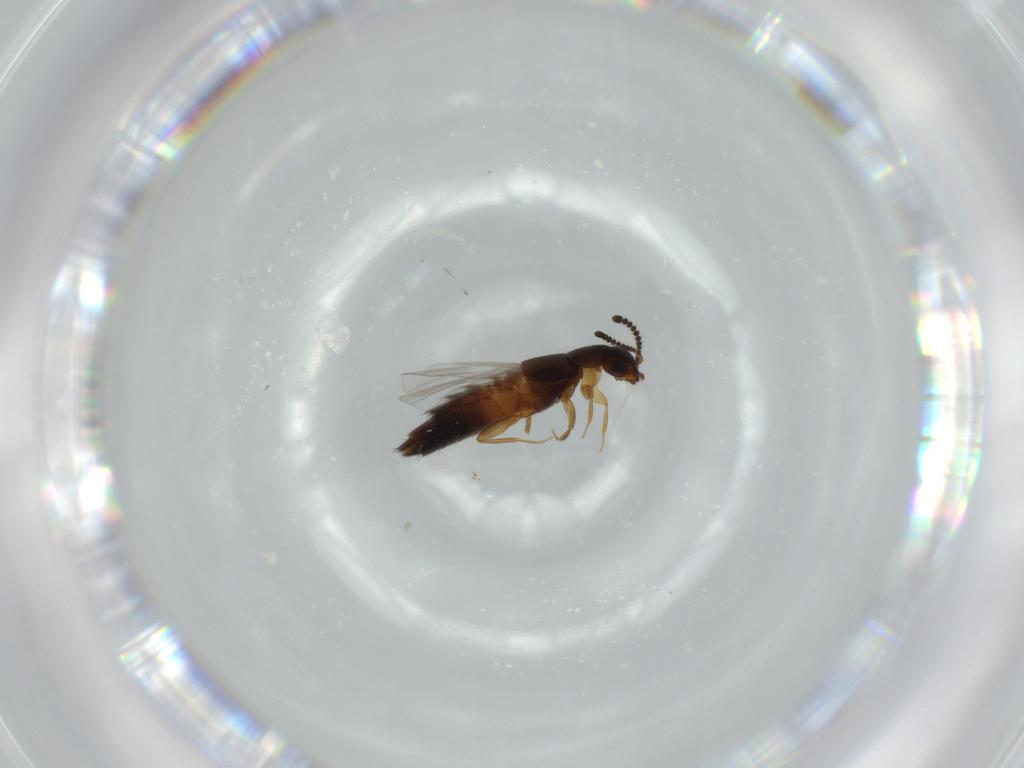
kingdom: Animalia
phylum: Arthropoda
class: Insecta
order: Coleoptera
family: Staphylinidae
